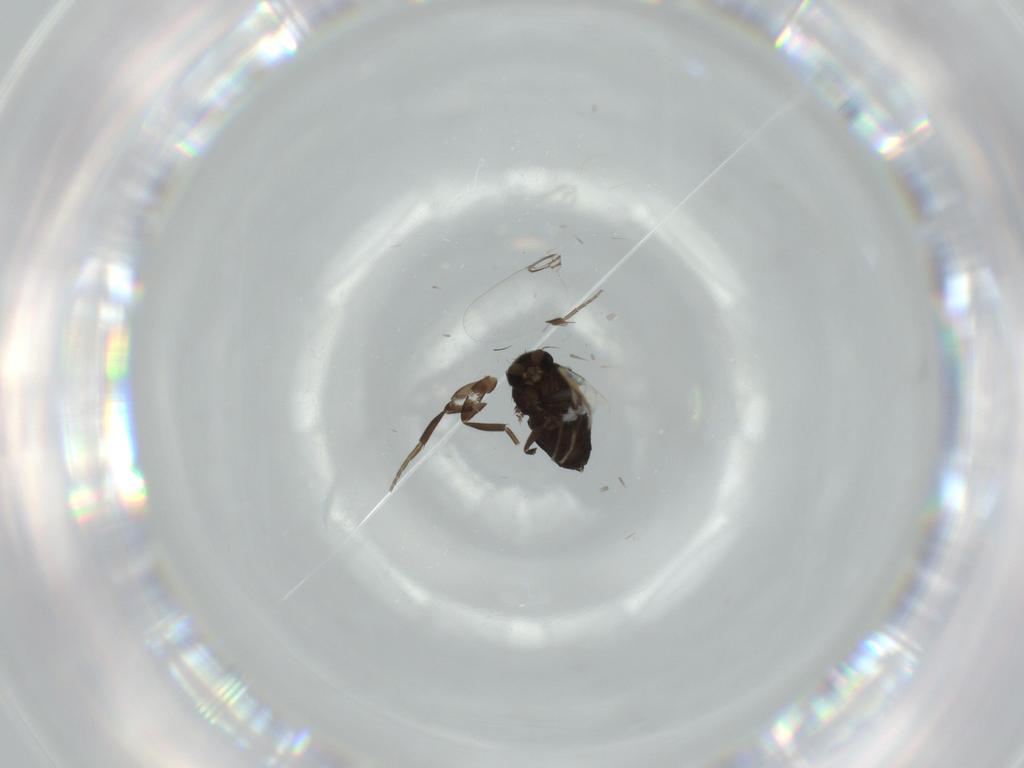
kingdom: Animalia
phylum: Arthropoda
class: Insecta
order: Diptera
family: Phoridae
